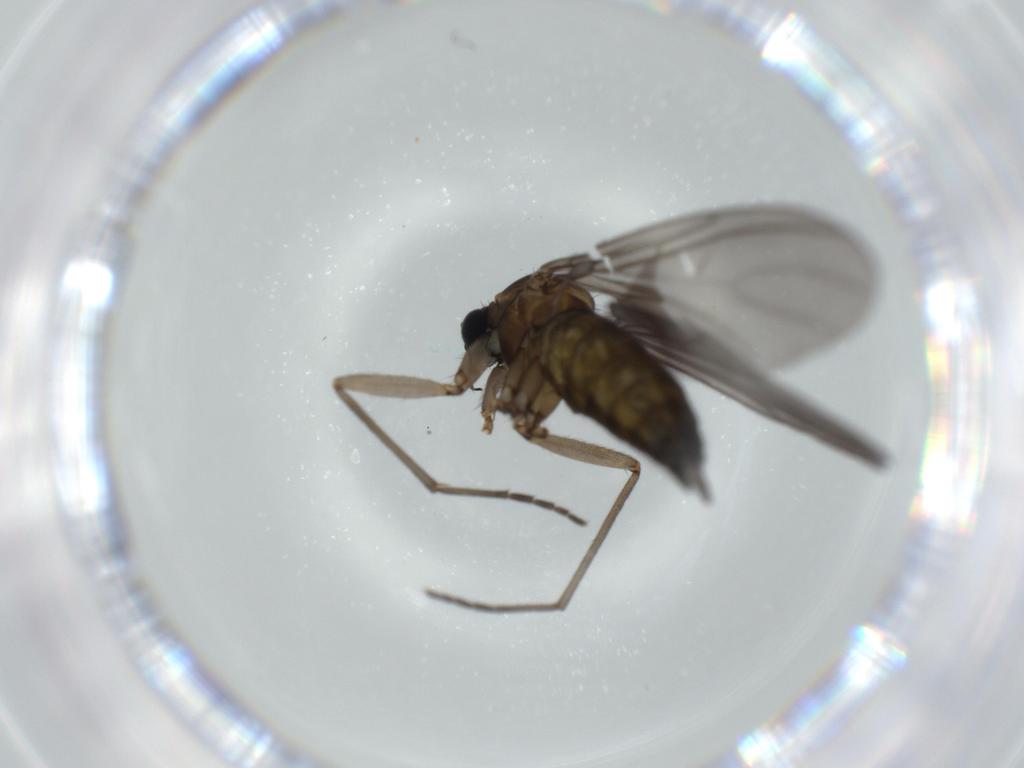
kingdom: Animalia
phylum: Arthropoda
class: Insecta
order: Diptera
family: Sciaridae
